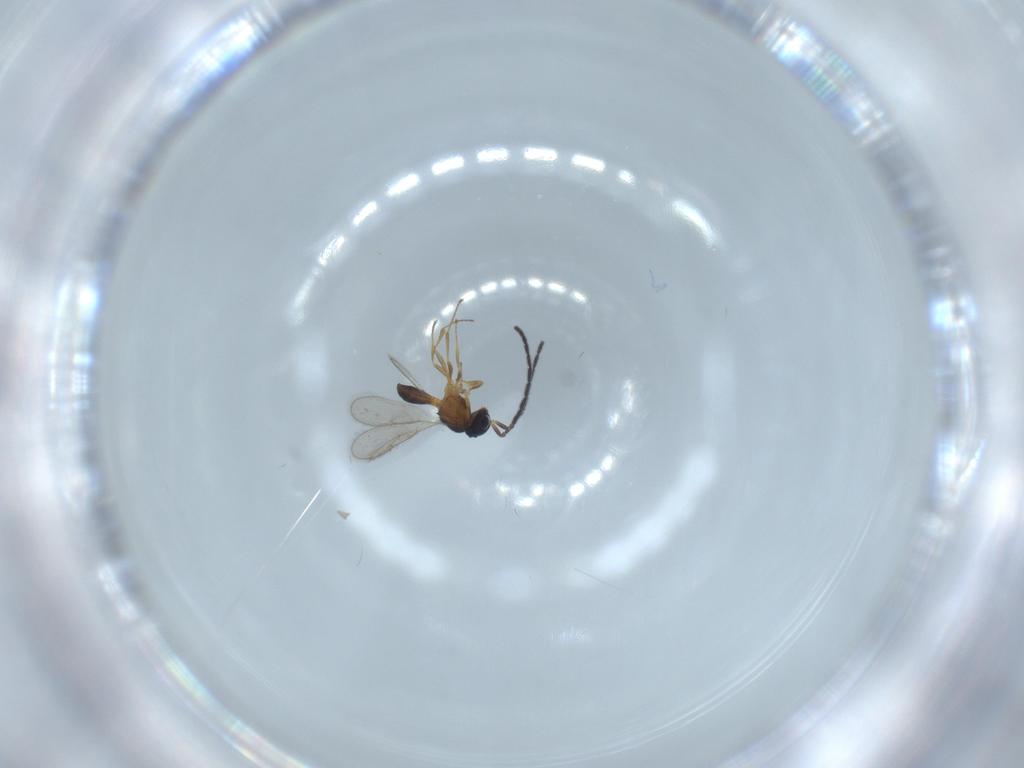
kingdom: Animalia
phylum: Arthropoda
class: Insecta
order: Hymenoptera
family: Scelionidae
